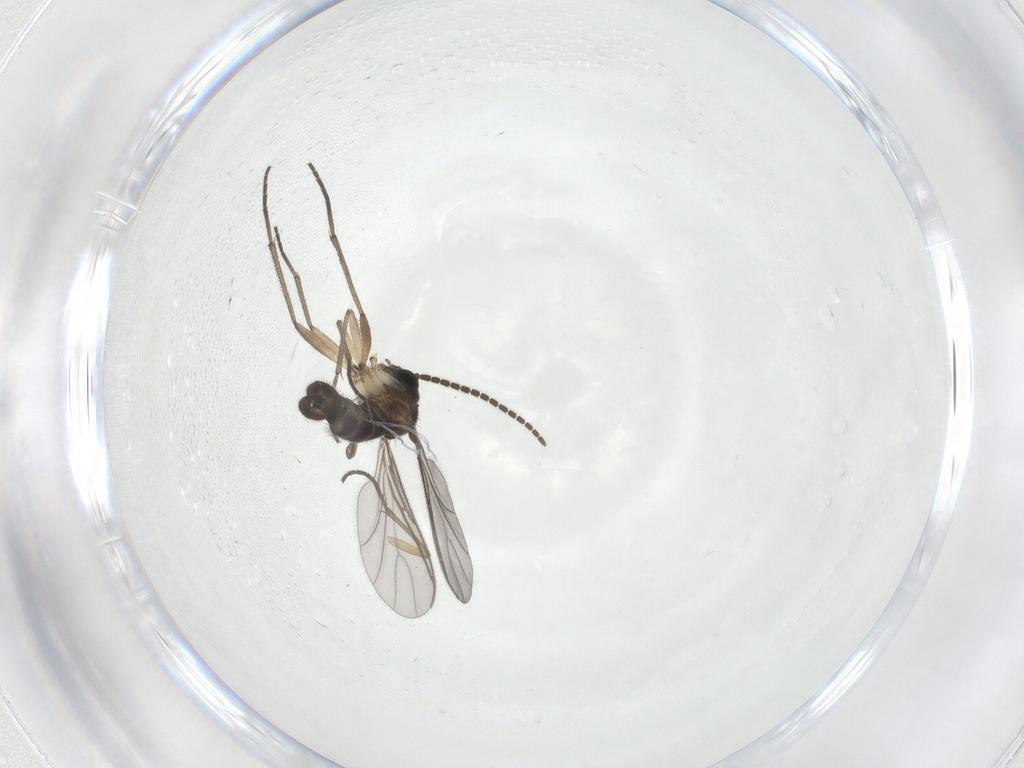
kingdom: Animalia
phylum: Arthropoda
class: Insecta
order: Diptera
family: Sciaridae
